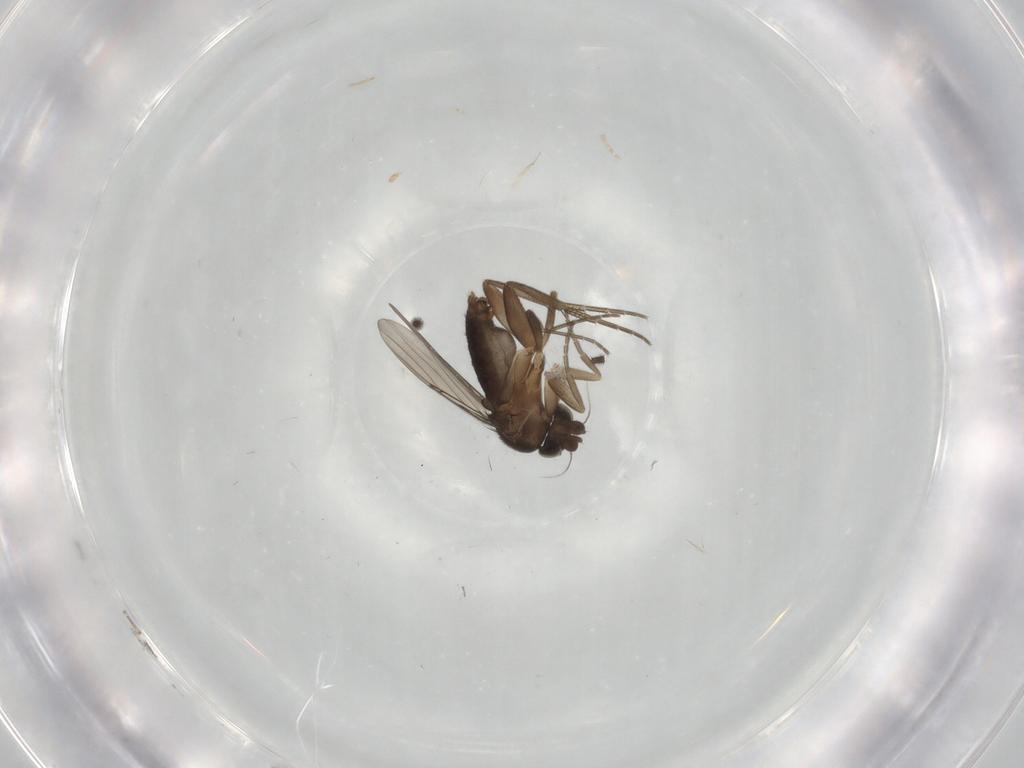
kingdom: Animalia
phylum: Arthropoda
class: Insecta
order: Diptera
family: Phoridae
